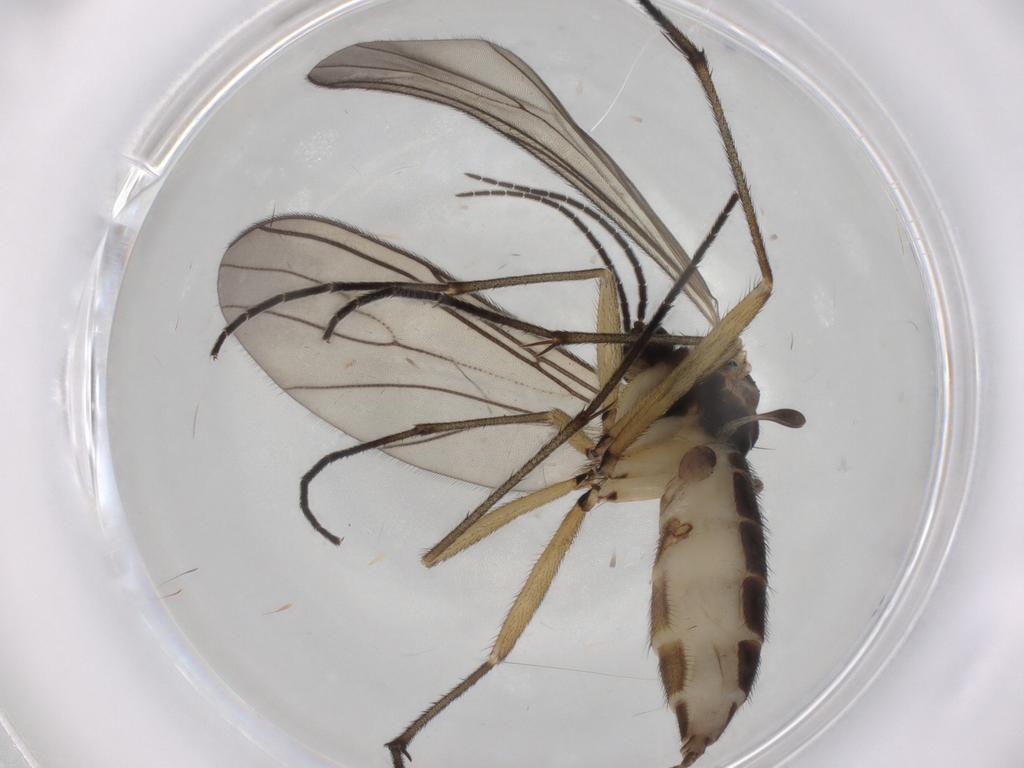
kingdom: Animalia
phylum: Arthropoda
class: Insecta
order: Diptera
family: Sciaridae
